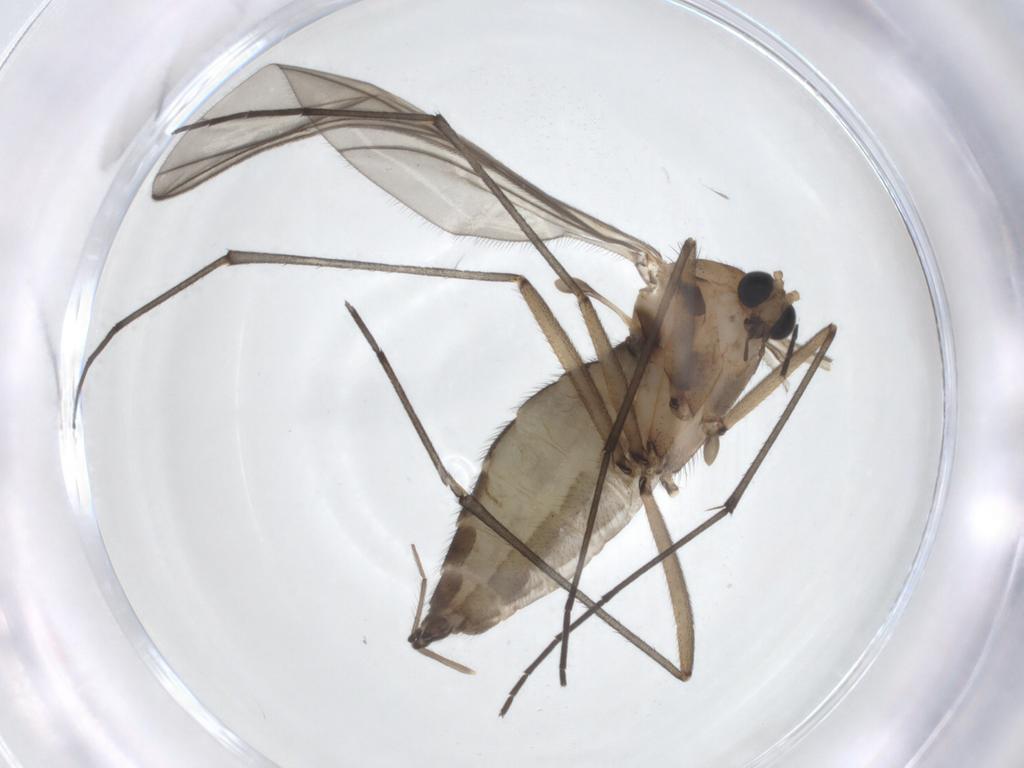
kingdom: Animalia
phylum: Arthropoda
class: Insecta
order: Diptera
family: Sciaridae
